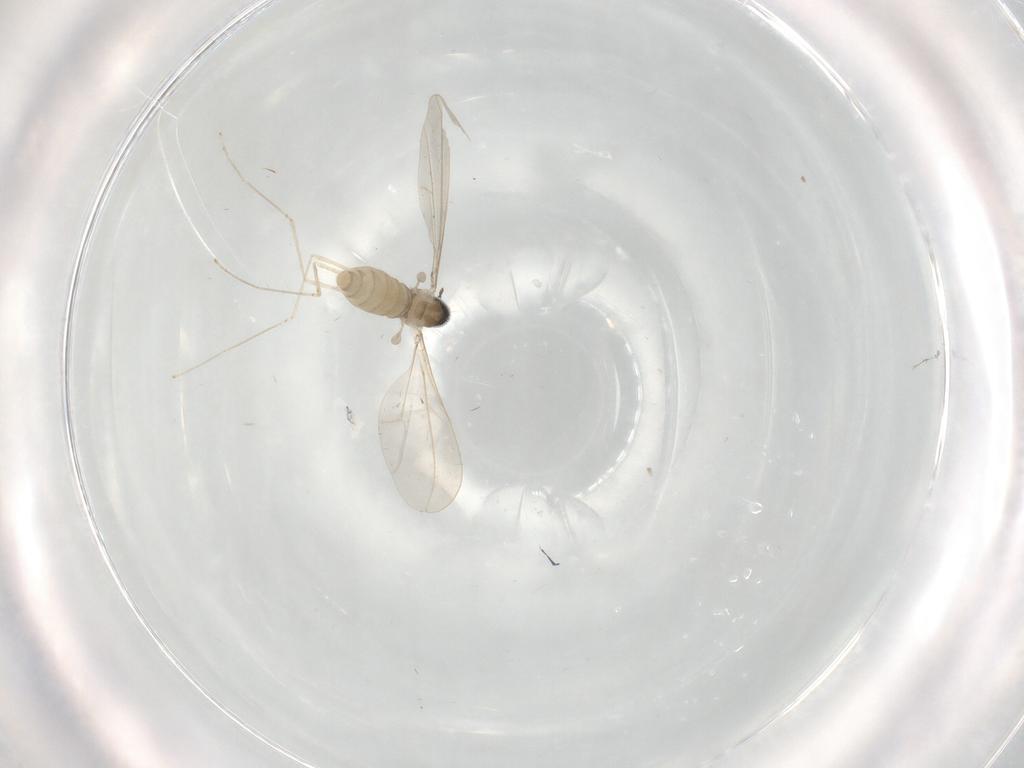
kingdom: Animalia
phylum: Arthropoda
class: Insecta
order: Diptera
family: Cecidomyiidae
